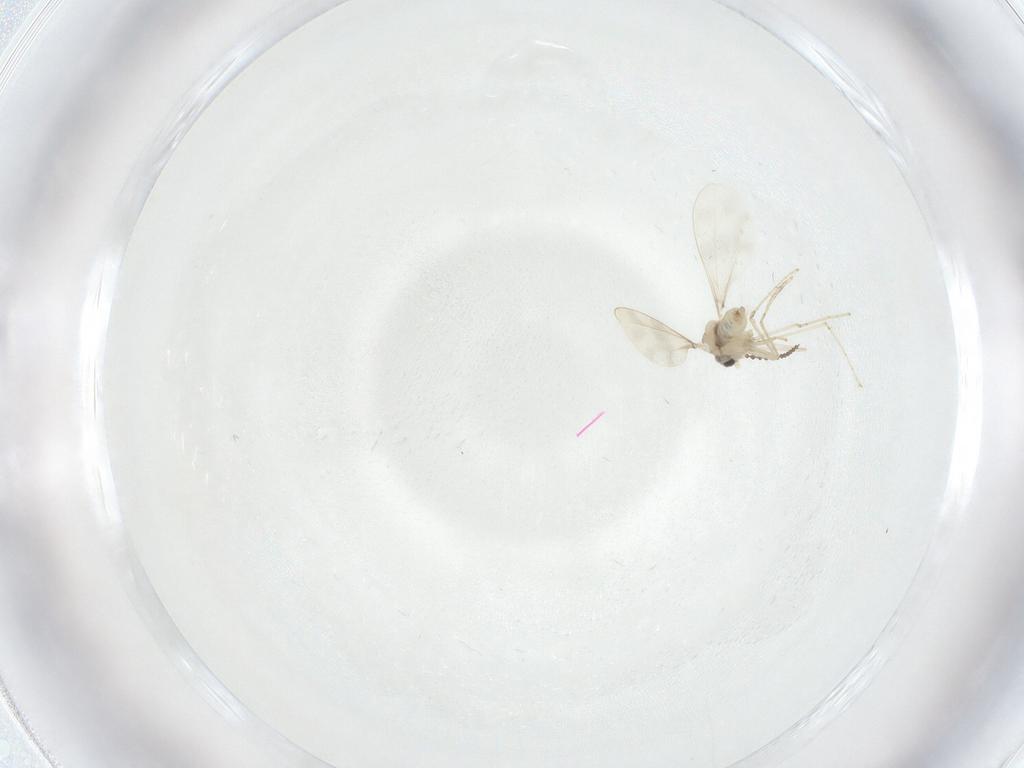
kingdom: Animalia
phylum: Arthropoda
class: Insecta
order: Diptera
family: Cecidomyiidae
